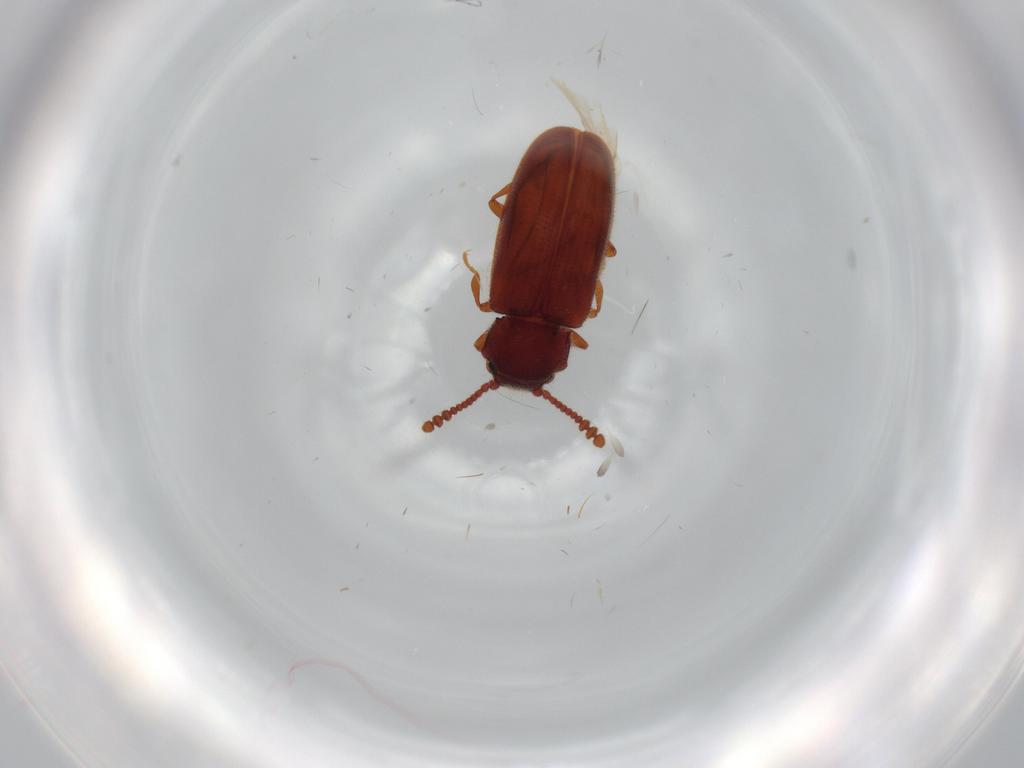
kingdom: Animalia
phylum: Arthropoda
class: Insecta
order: Coleoptera
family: Erotylidae
